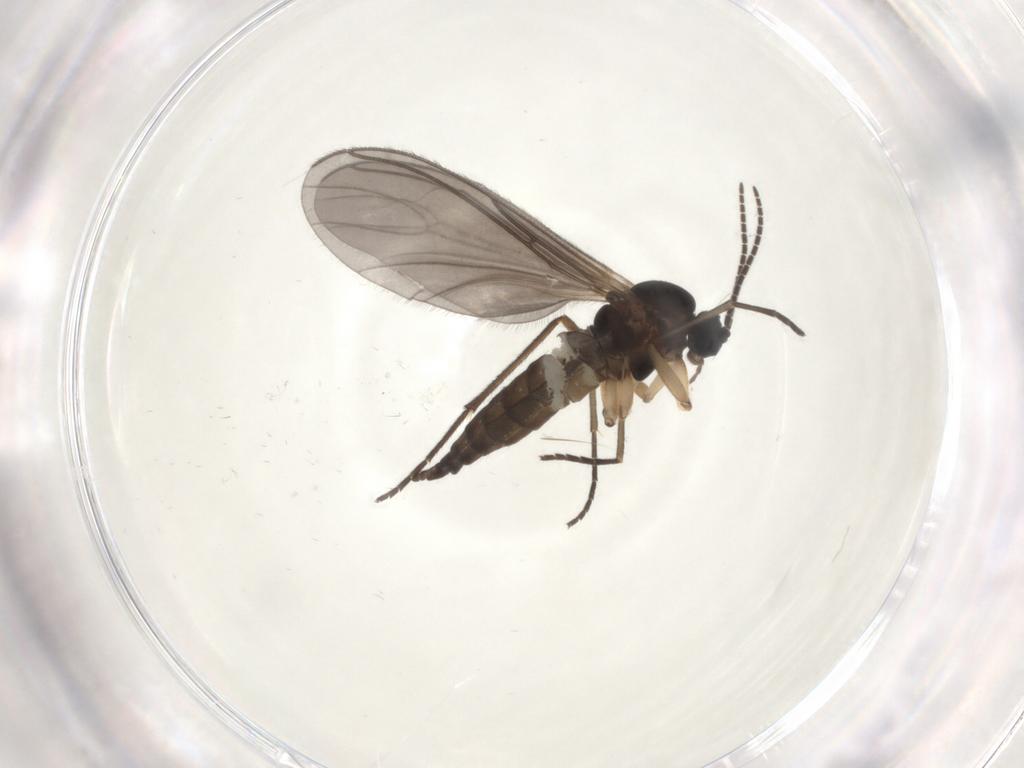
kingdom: Animalia
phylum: Arthropoda
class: Insecta
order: Diptera
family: Sciaridae
